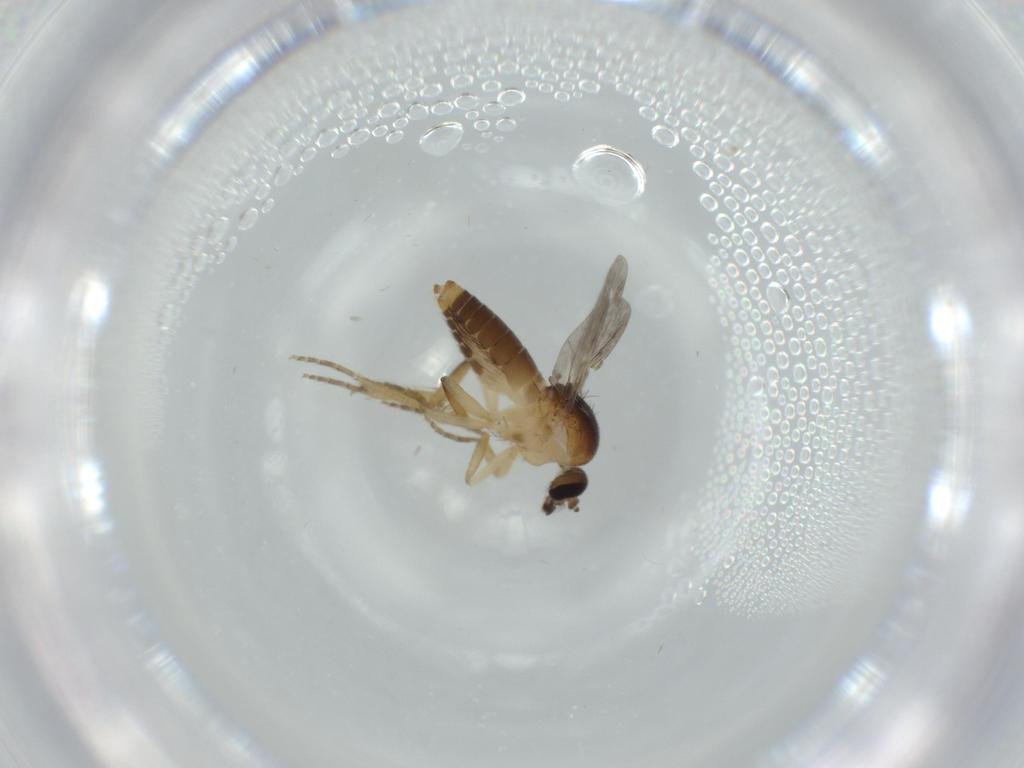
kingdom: Animalia
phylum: Arthropoda
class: Insecta
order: Diptera
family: Ceratopogonidae
